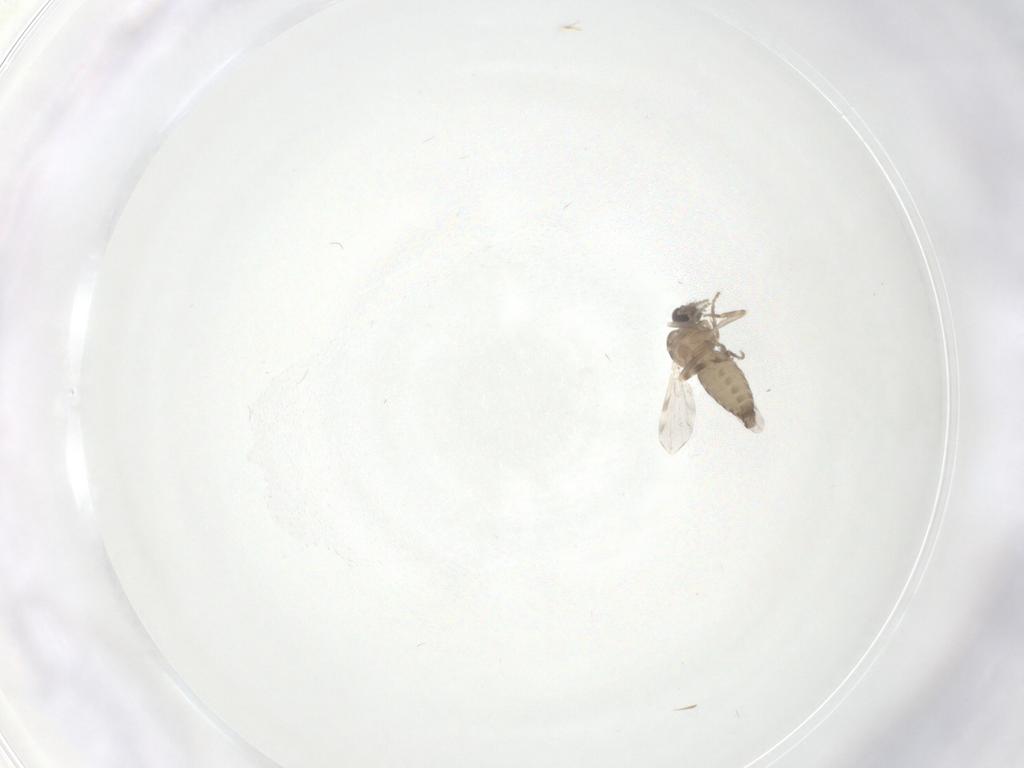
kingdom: Animalia
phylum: Arthropoda
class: Insecta
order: Diptera
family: Ceratopogonidae
